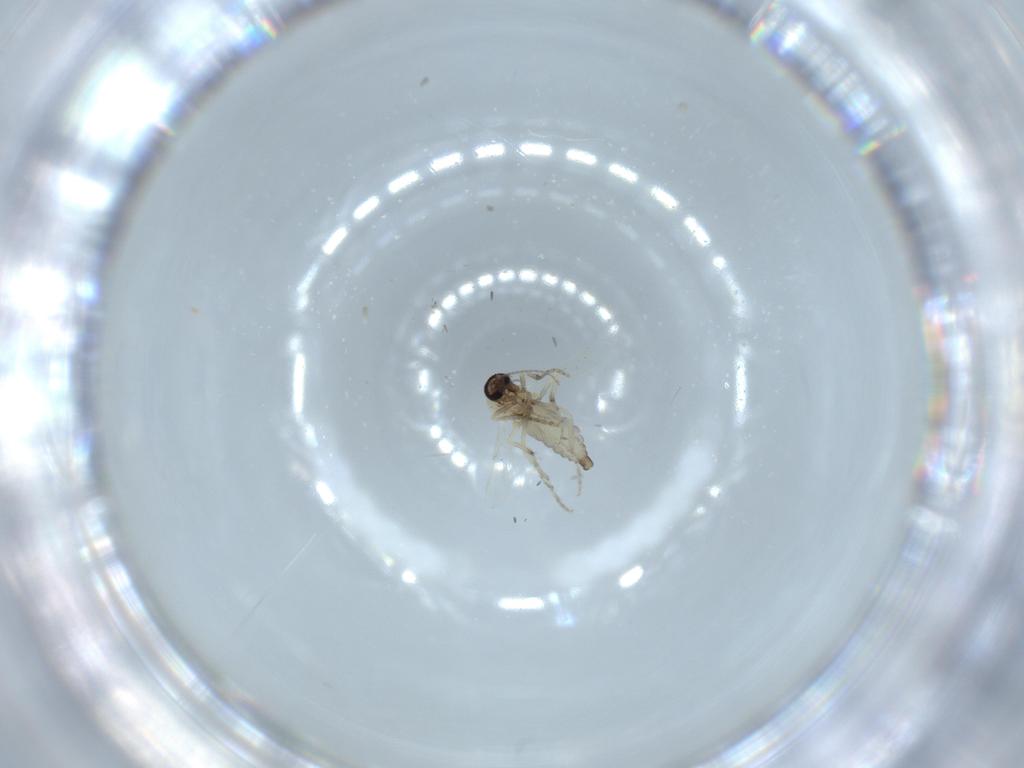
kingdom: Animalia
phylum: Arthropoda
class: Insecta
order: Diptera
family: Ceratopogonidae
